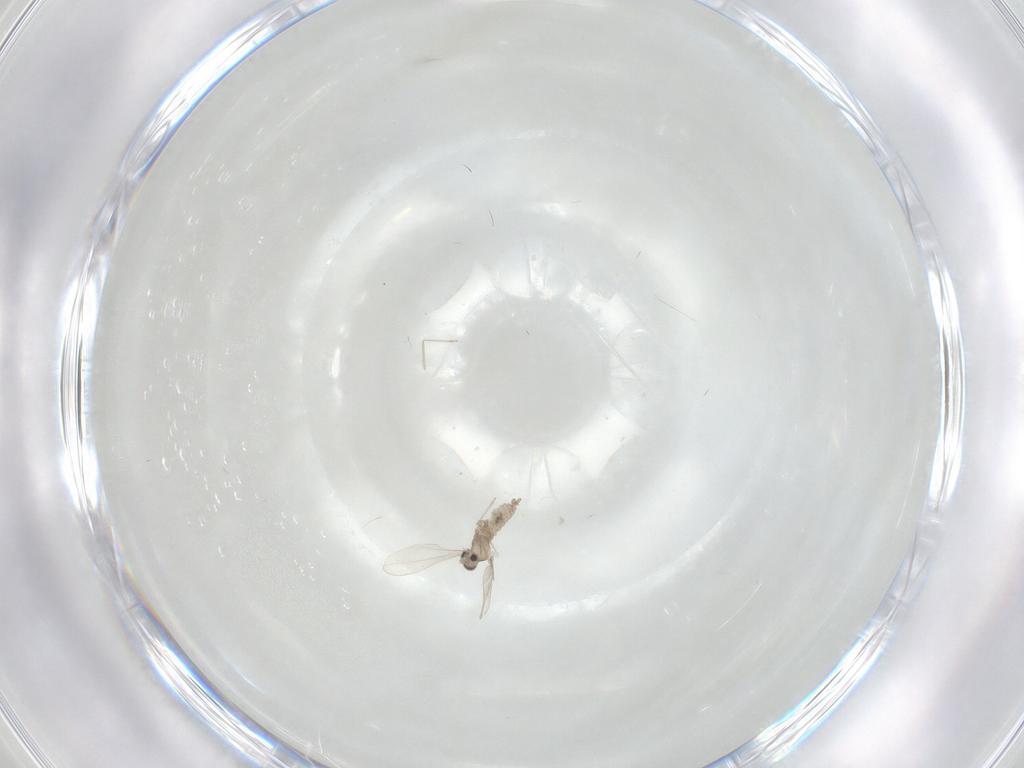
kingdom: Animalia
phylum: Arthropoda
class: Insecta
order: Diptera
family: Cecidomyiidae
